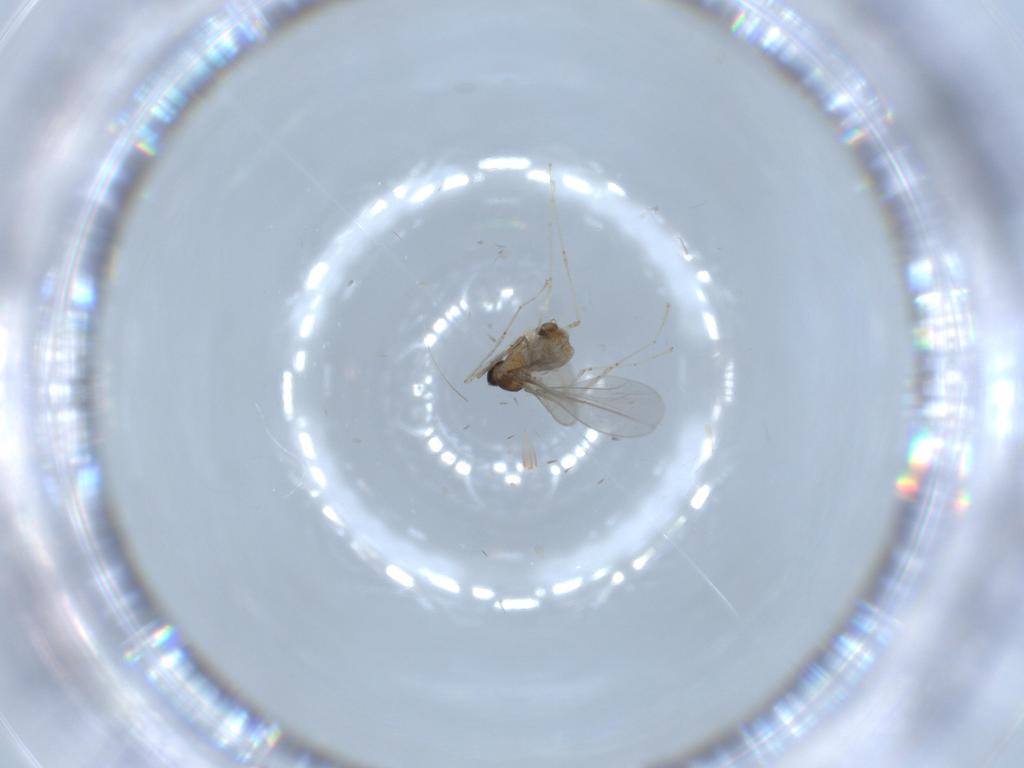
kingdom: Animalia
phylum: Arthropoda
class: Insecta
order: Diptera
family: Cecidomyiidae
